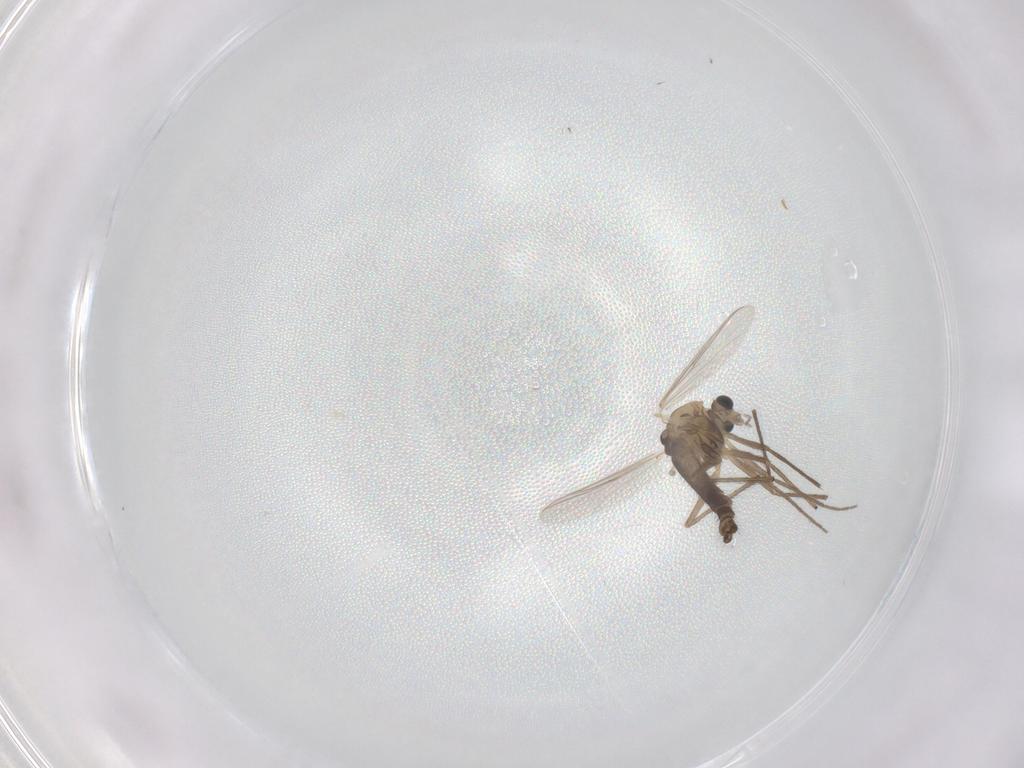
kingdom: Animalia
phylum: Arthropoda
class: Insecta
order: Diptera
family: Chironomidae
